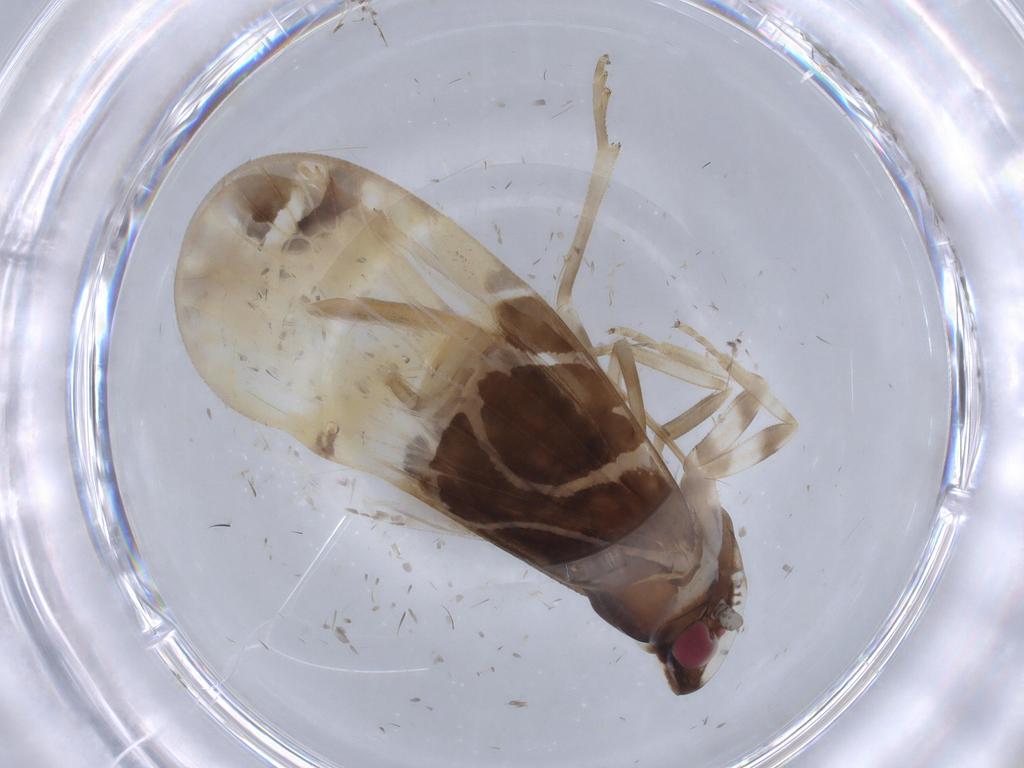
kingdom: Animalia
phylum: Arthropoda
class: Insecta
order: Hemiptera
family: Cixiidae
